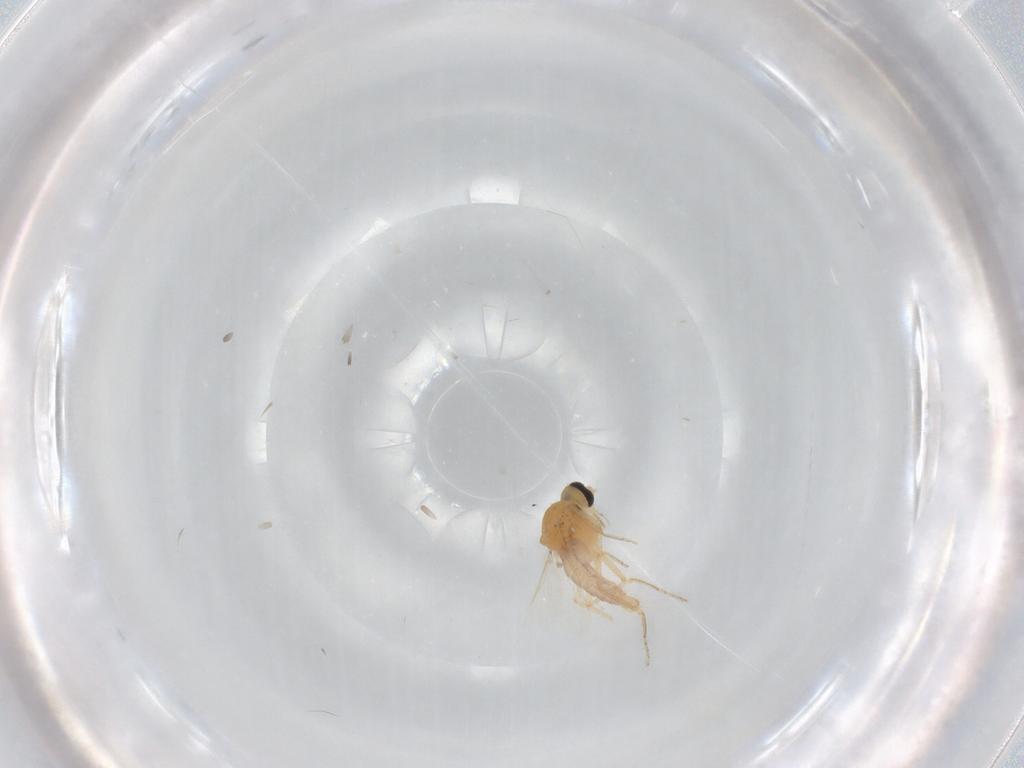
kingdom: Animalia
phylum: Arthropoda
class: Insecta
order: Diptera
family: Ceratopogonidae
